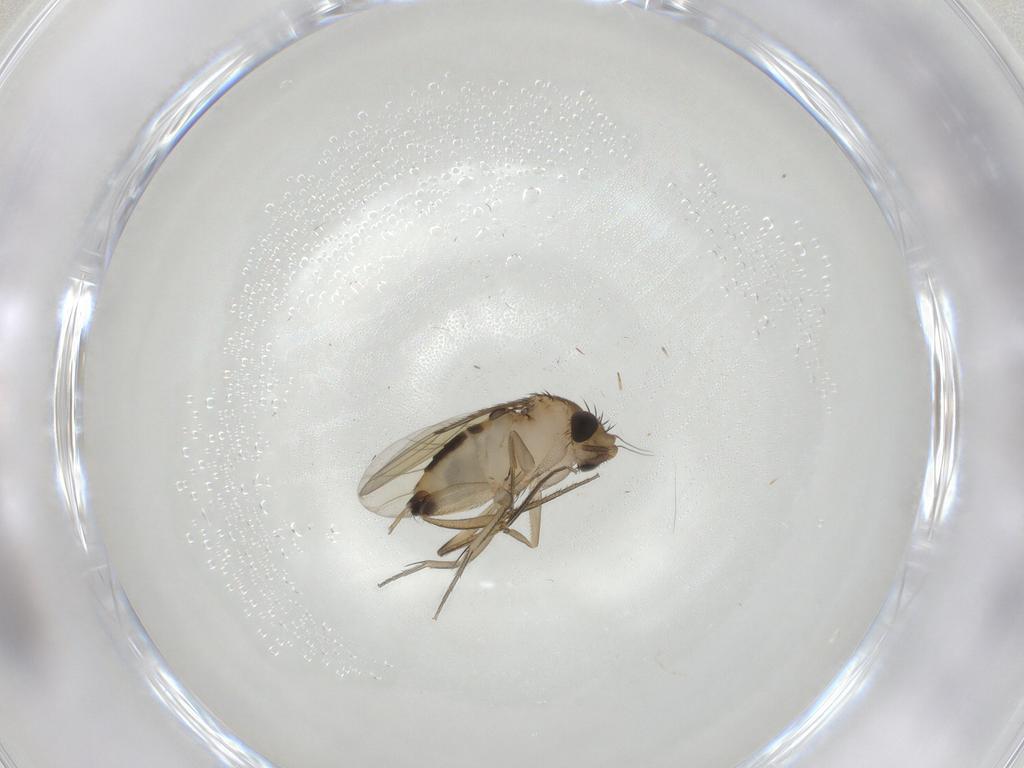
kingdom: Animalia
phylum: Arthropoda
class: Insecta
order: Diptera
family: Phoridae
